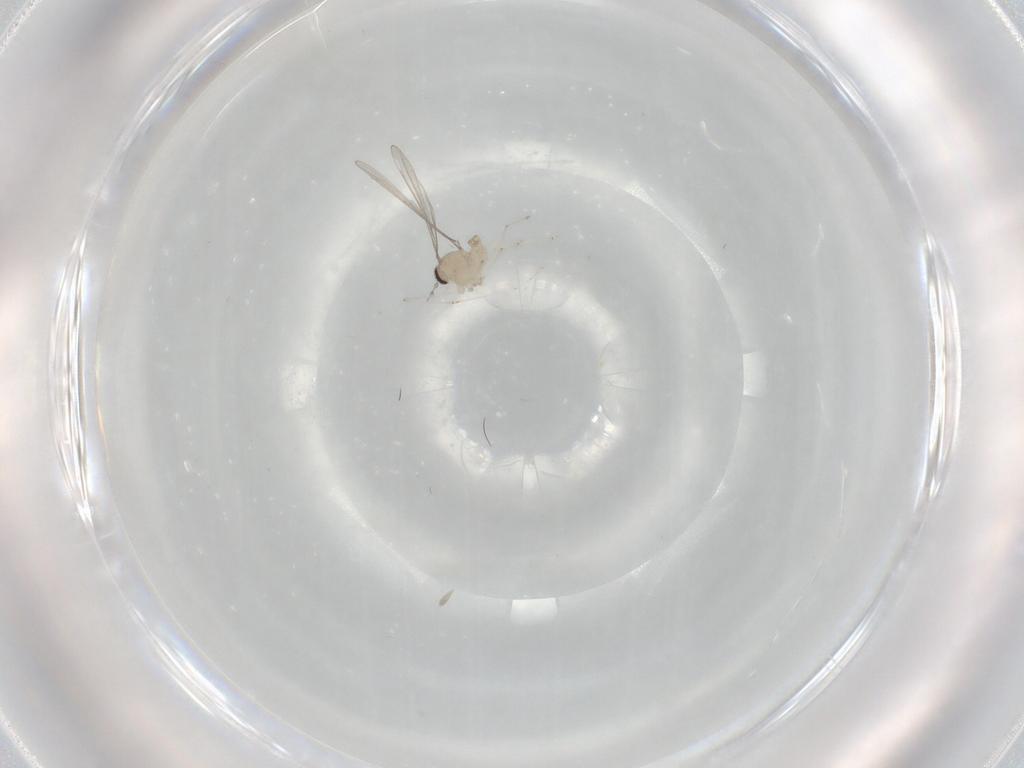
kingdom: Animalia
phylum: Arthropoda
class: Insecta
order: Diptera
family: Cecidomyiidae
